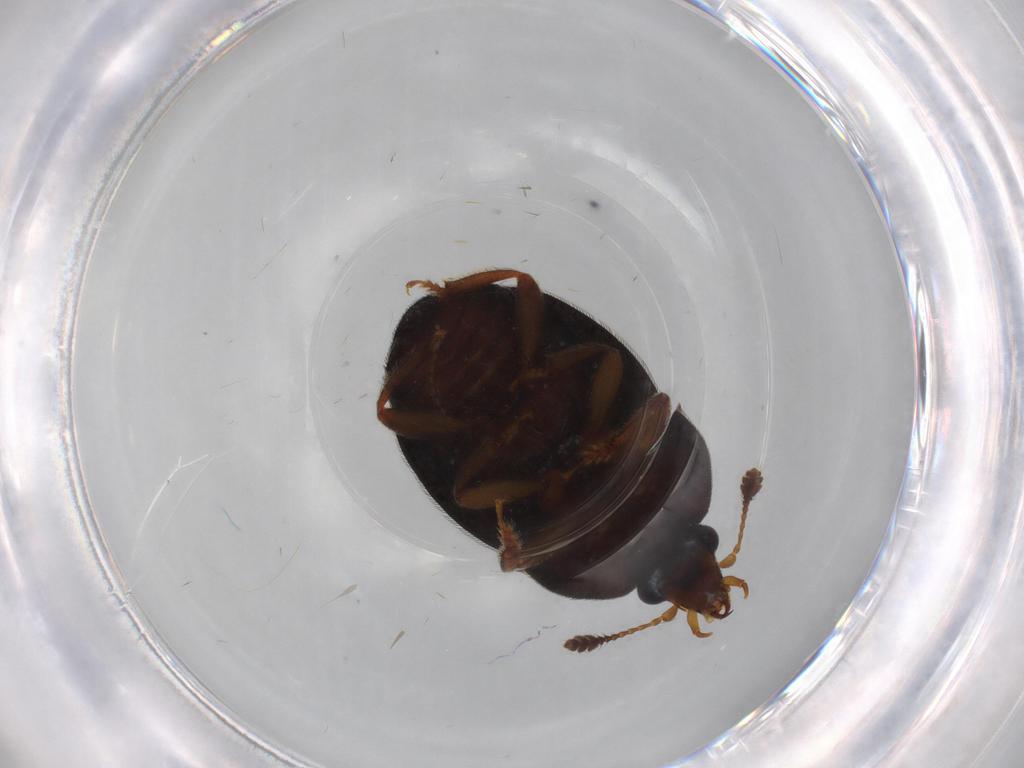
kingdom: Animalia
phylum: Arthropoda
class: Insecta
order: Coleoptera
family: Scarabaeidae
